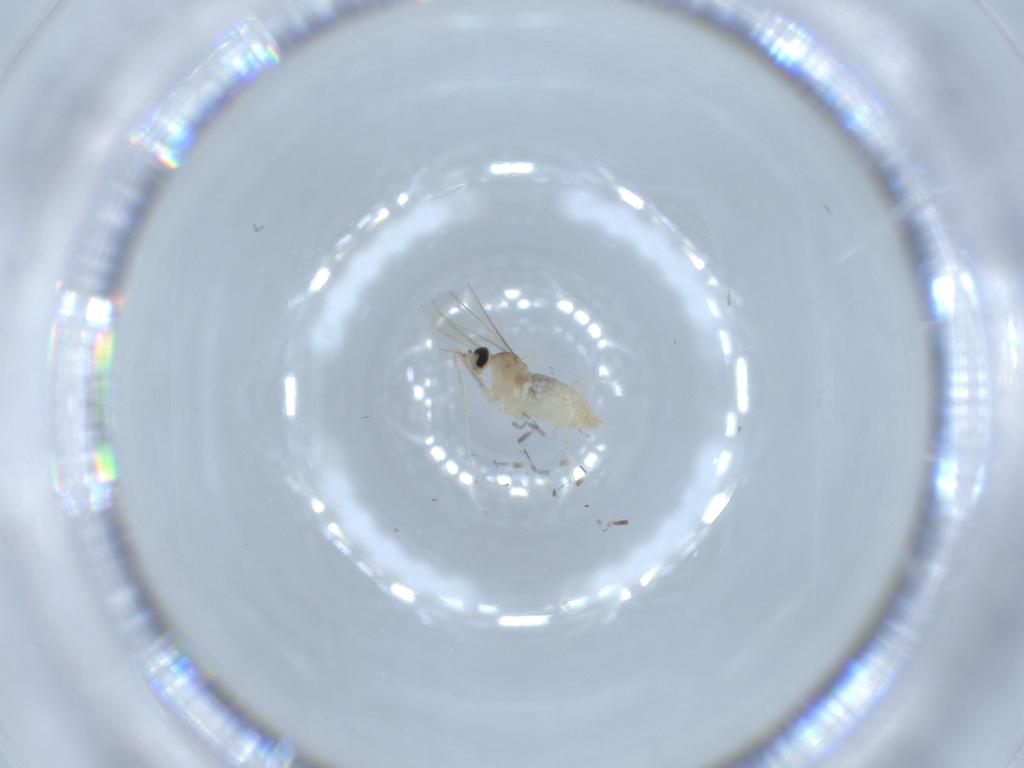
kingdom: Animalia
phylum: Arthropoda
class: Insecta
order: Diptera
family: Cecidomyiidae
